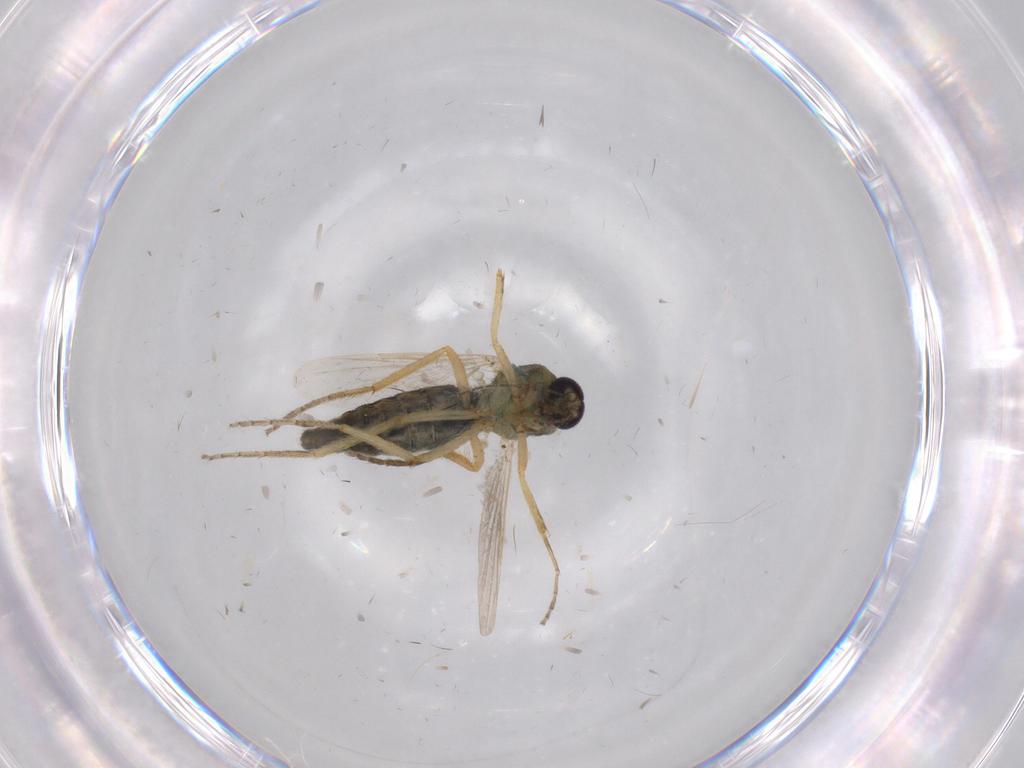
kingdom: Animalia
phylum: Arthropoda
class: Insecta
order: Diptera
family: Ceratopogonidae
